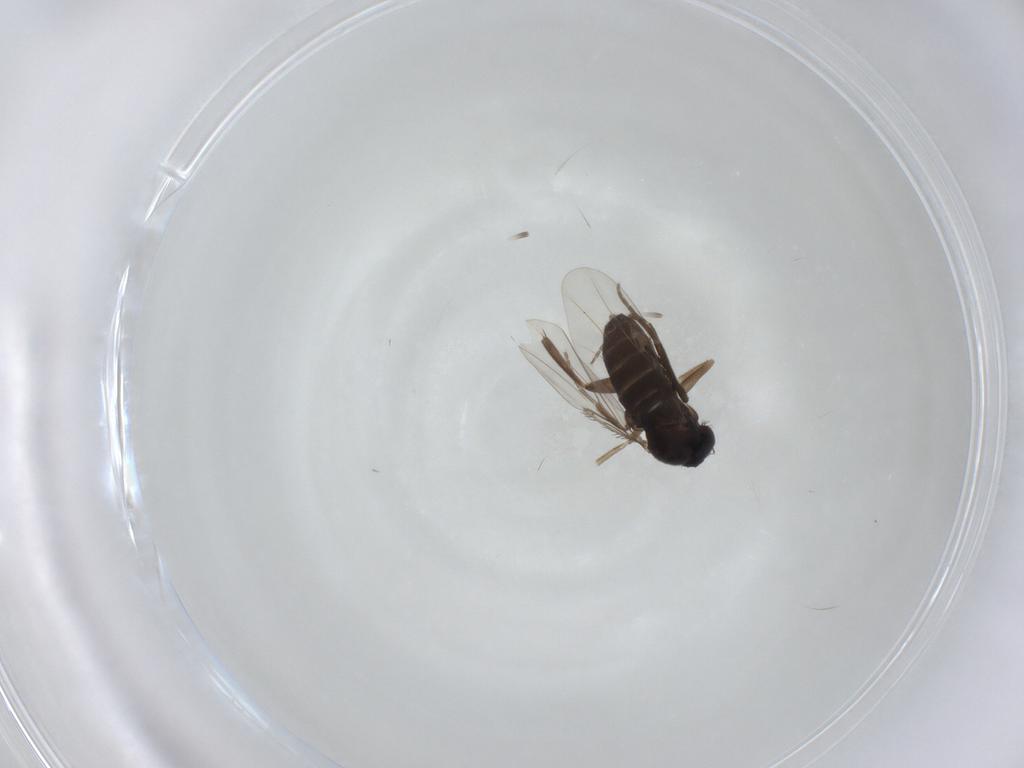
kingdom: Animalia
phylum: Arthropoda
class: Insecta
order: Diptera
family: Phoridae
